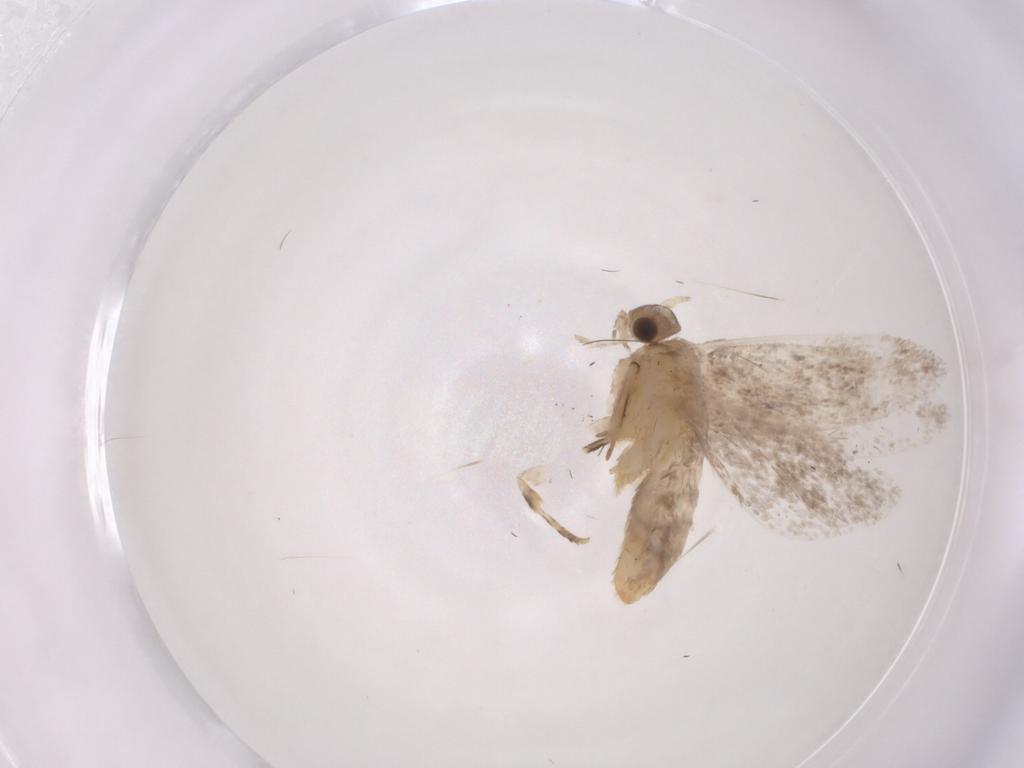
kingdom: Animalia
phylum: Arthropoda
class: Insecta
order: Lepidoptera
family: Dryadaulidae
